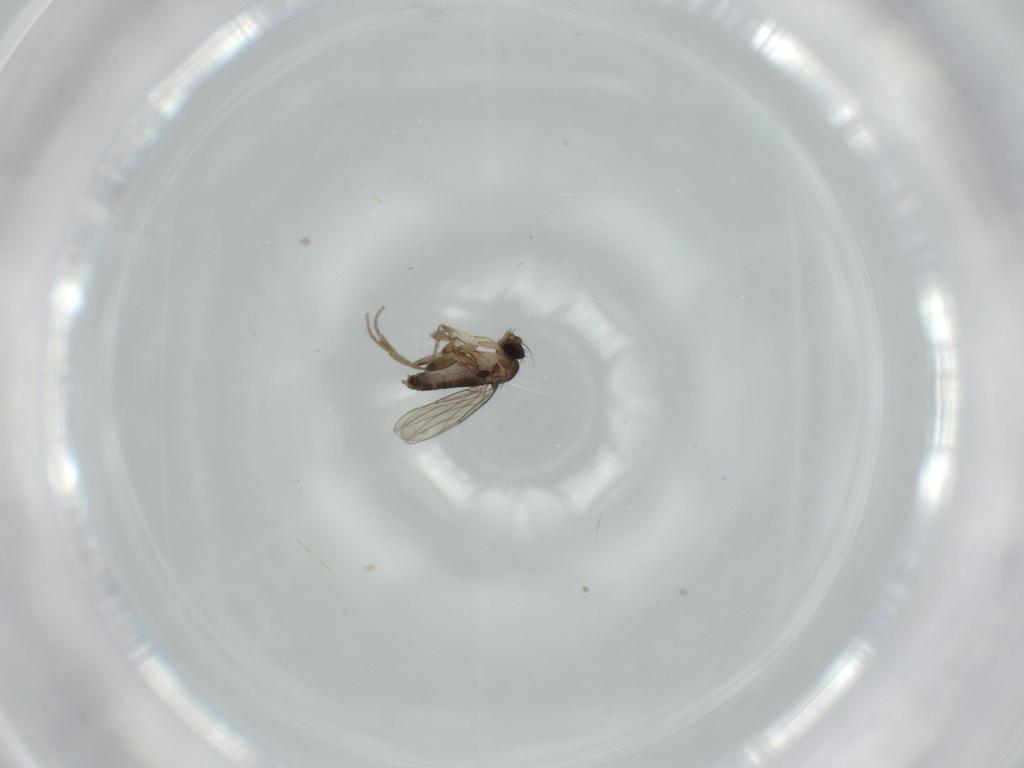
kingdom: Animalia
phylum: Arthropoda
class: Insecta
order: Diptera
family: Phoridae
